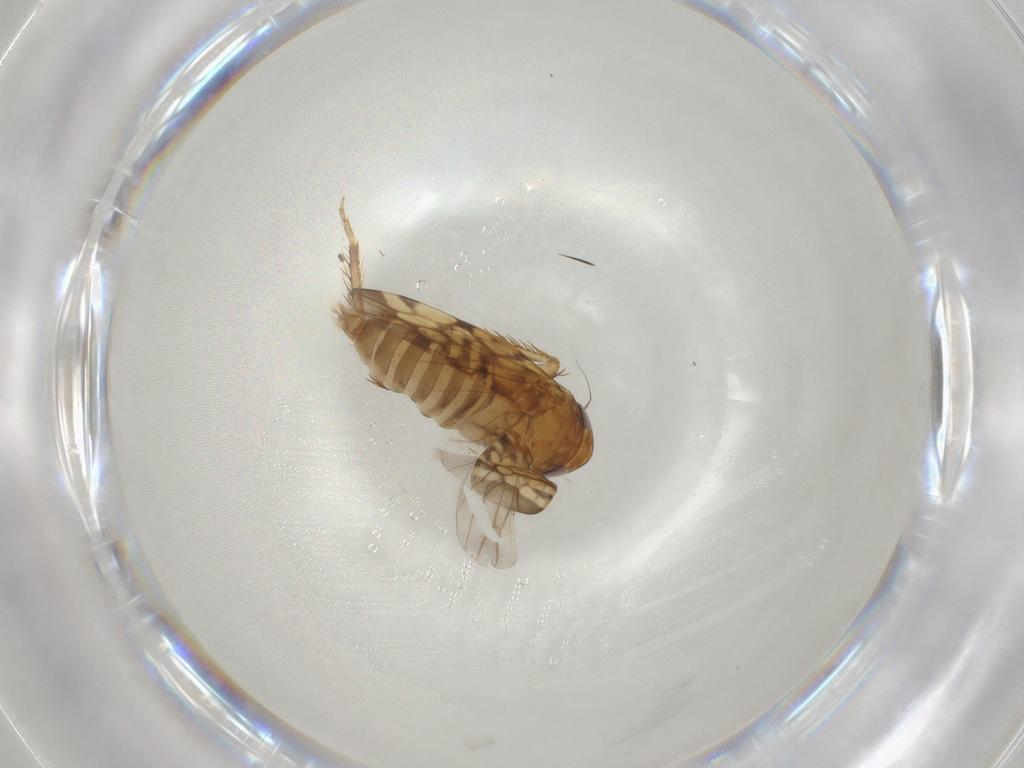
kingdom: Animalia
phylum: Arthropoda
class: Insecta
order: Hemiptera
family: Cicadellidae
